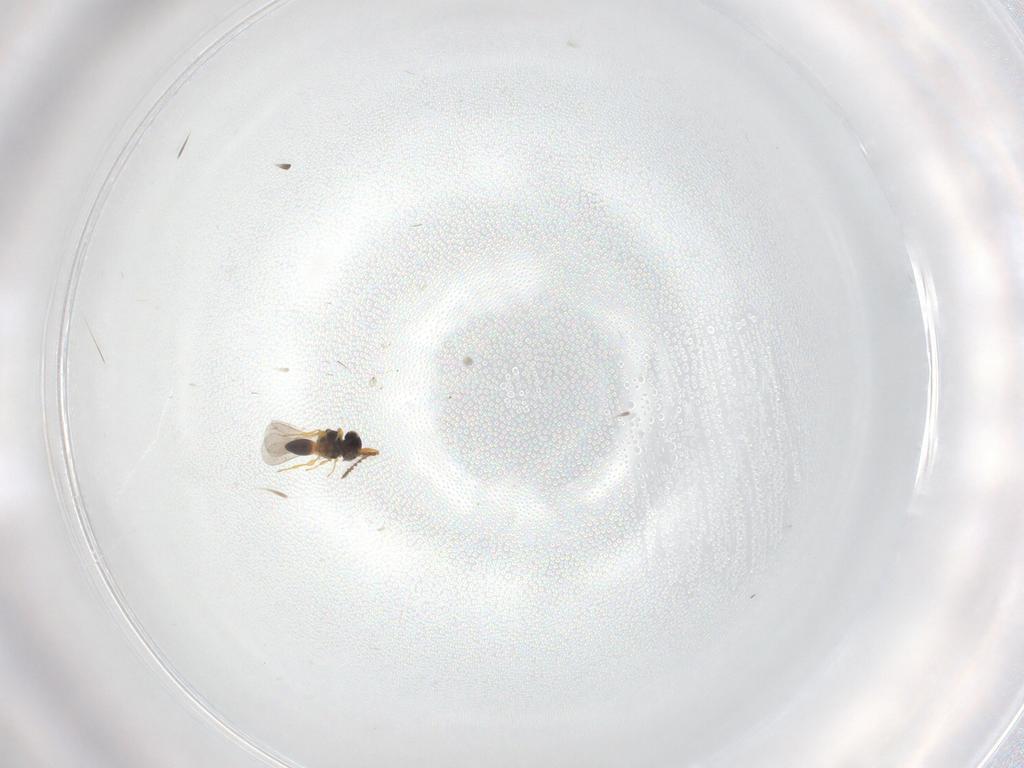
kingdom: Animalia
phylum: Arthropoda
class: Insecta
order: Hymenoptera
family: Platygastridae
